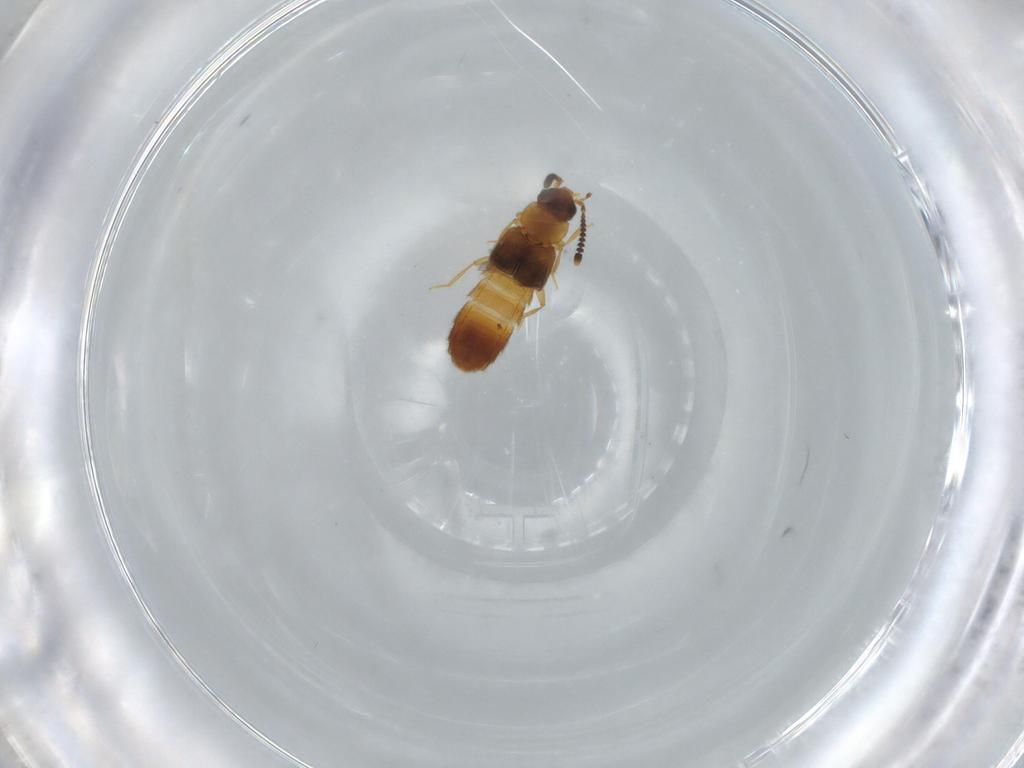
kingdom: Animalia
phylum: Arthropoda
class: Insecta
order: Coleoptera
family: Staphylinidae
